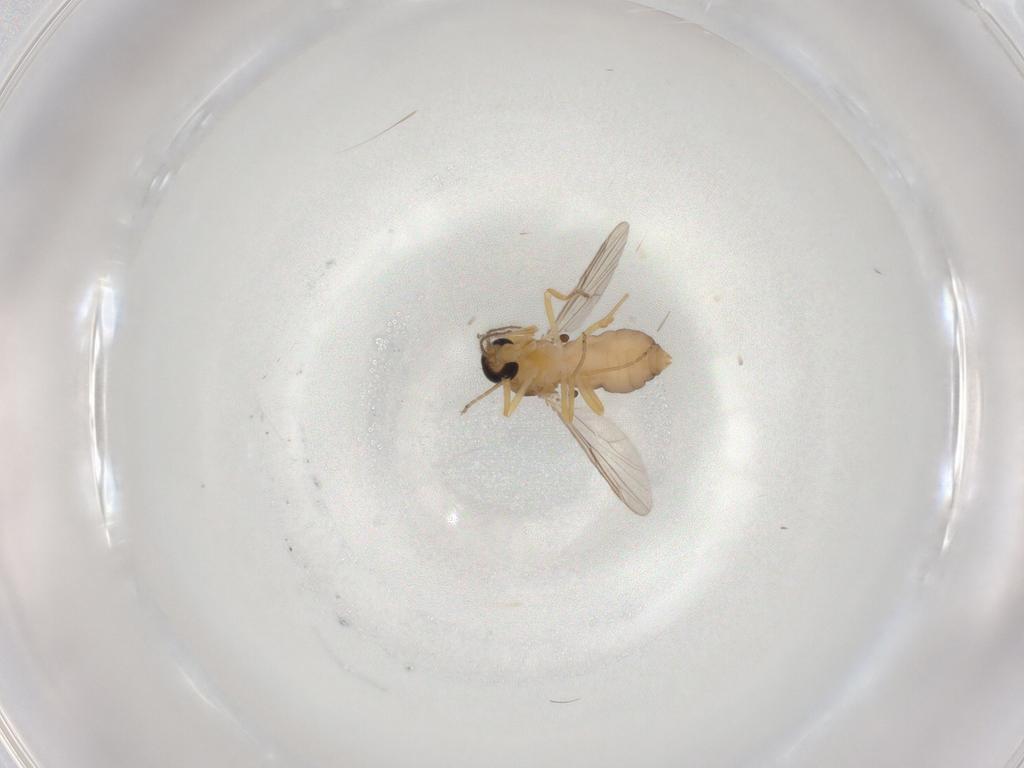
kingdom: Animalia
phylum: Arthropoda
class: Insecta
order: Diptera
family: Ceratopogonidae
